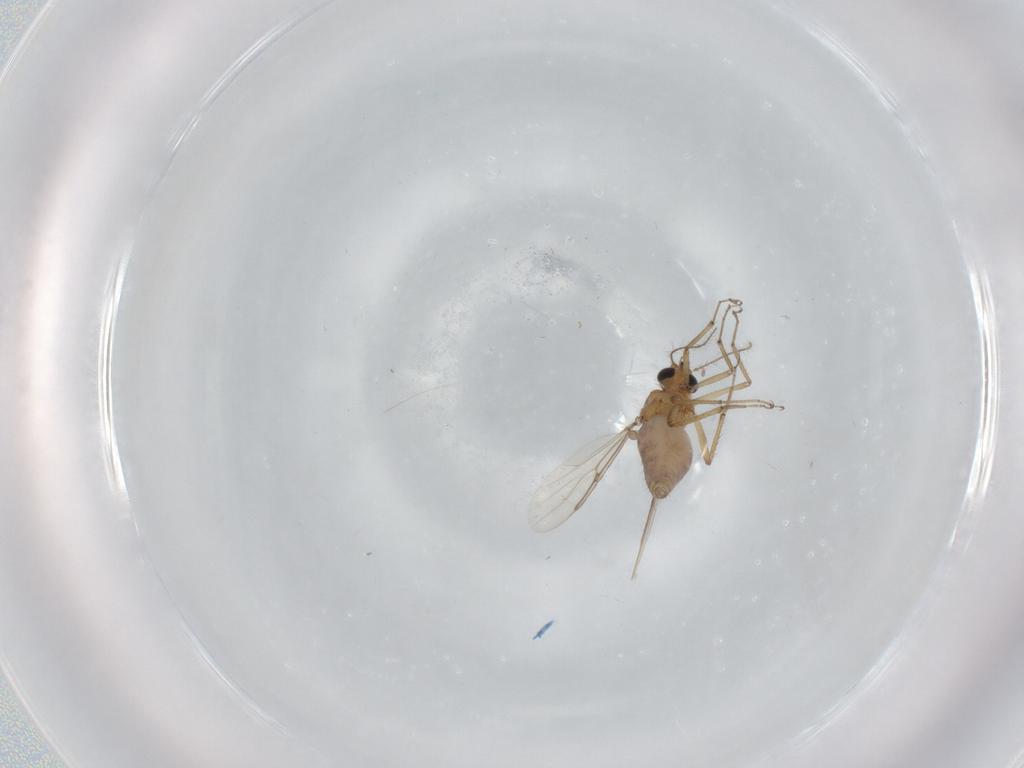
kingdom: Animalia
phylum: Arthropoda
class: Insecta
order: Diptera
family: Ceratopogonidae
